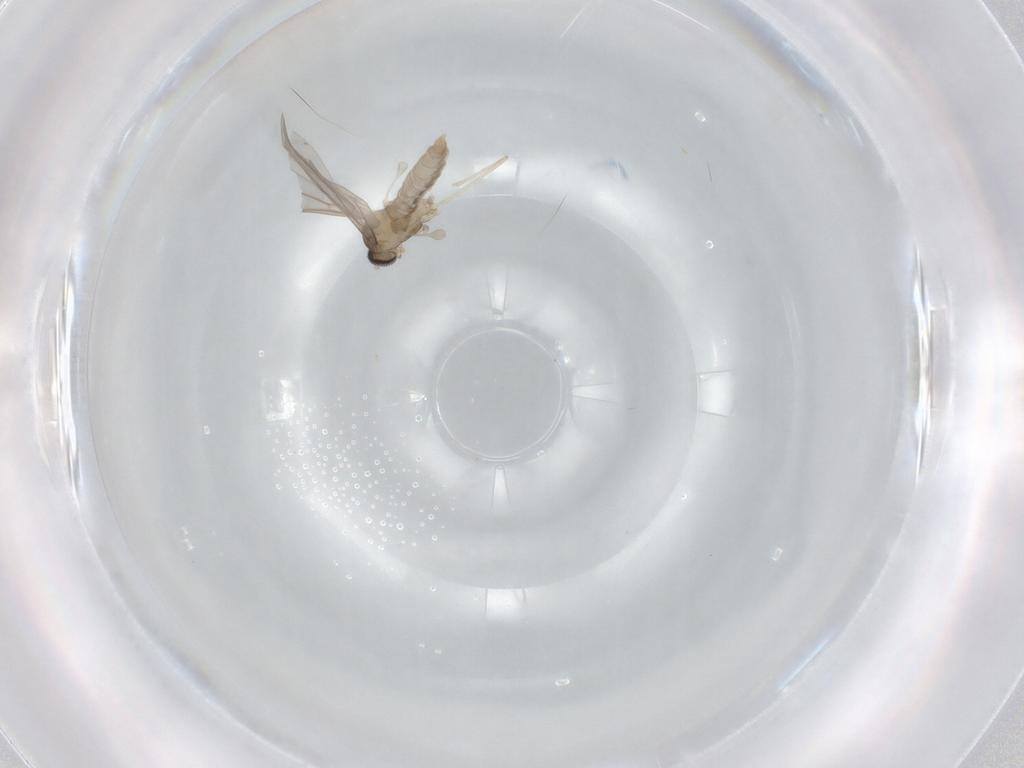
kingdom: Animalia
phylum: Arthropoda
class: Insecta
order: Diptera
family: Cecidomyiidae
